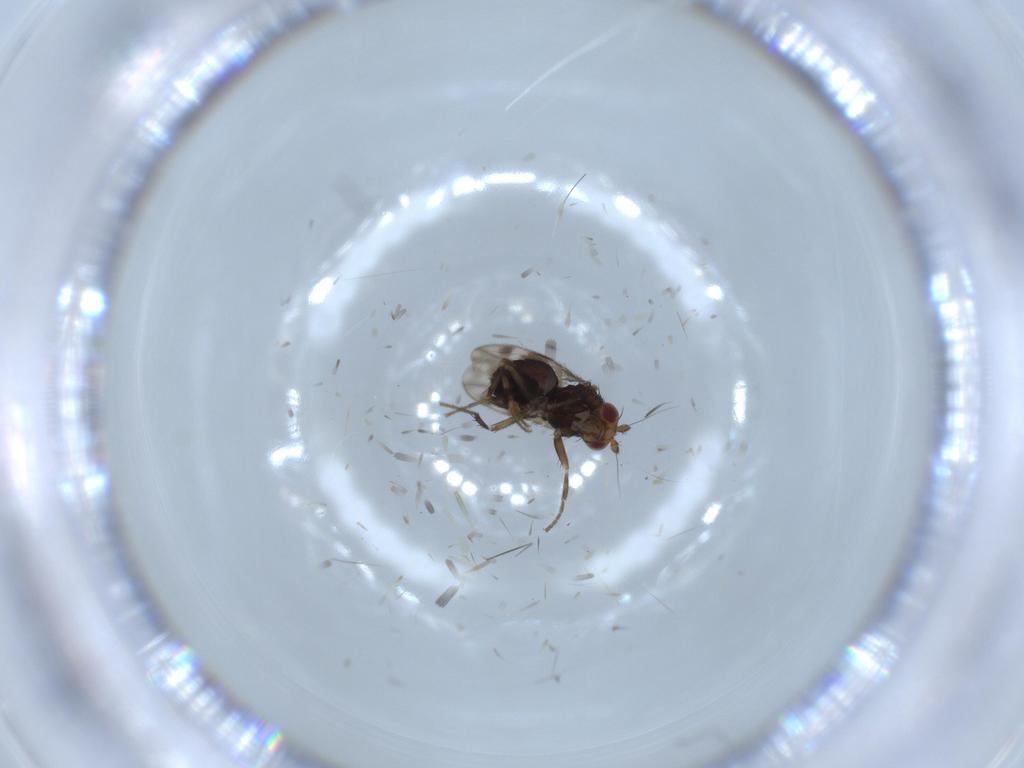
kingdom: Animalia
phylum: Arthropoda
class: Insecta
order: Diptera
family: Sphaeroceridae
